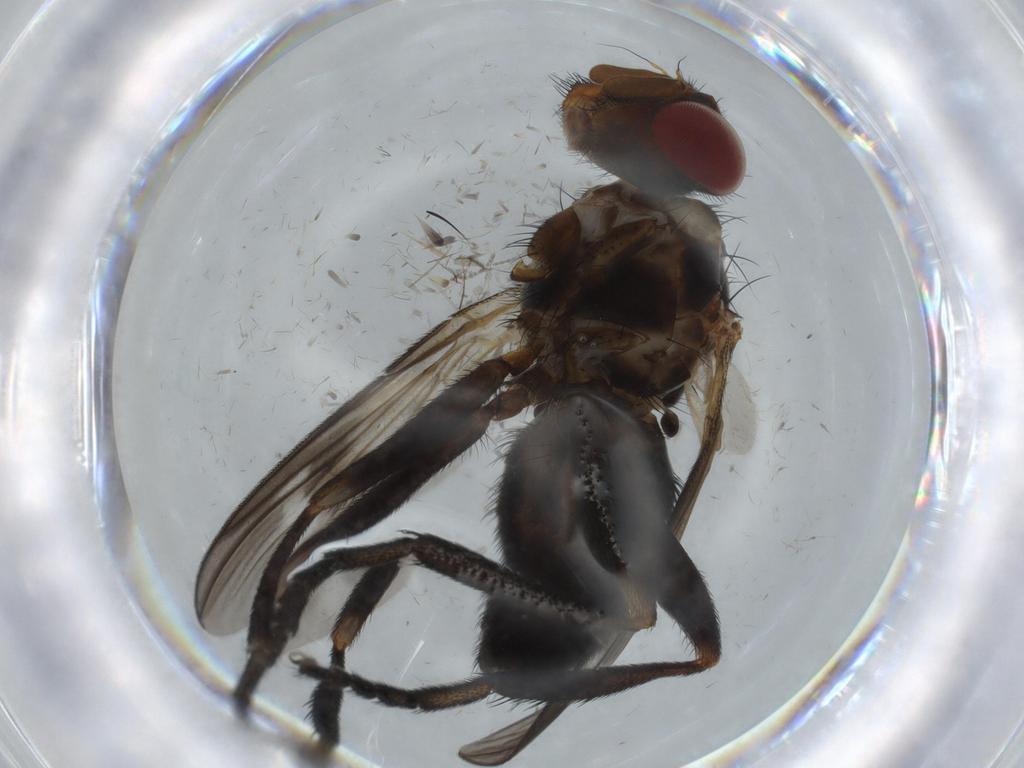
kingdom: Animalia
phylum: Arthropoda
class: Insecta
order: Diptera
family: Calliphoridae
